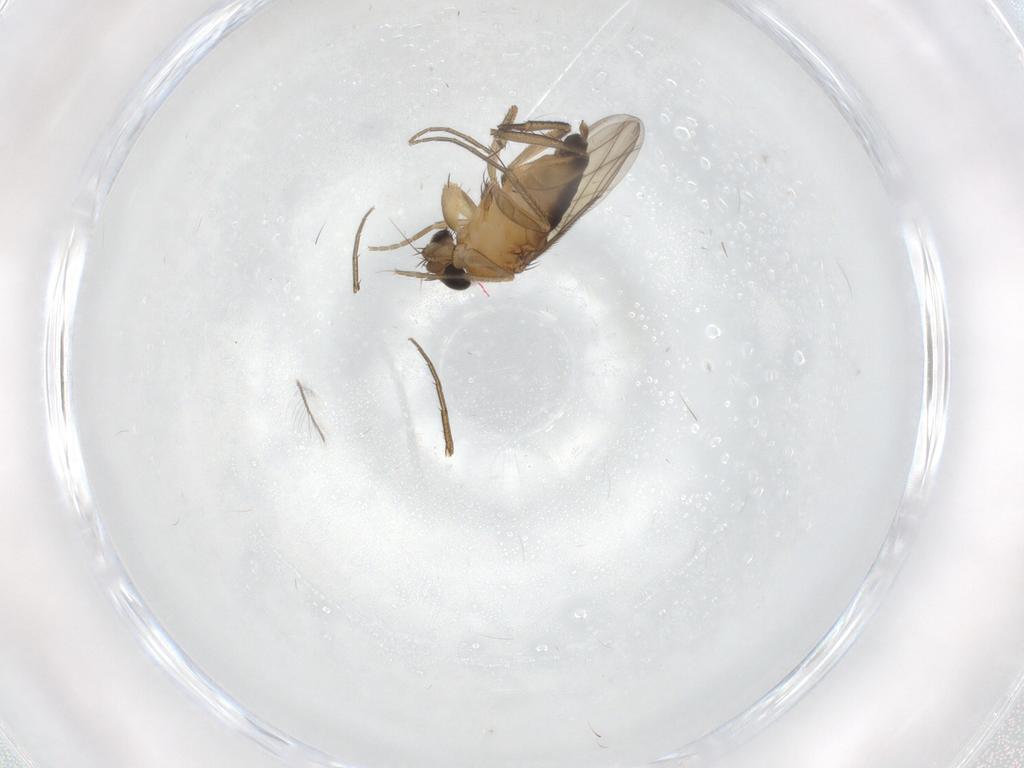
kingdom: Animalia
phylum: Arthropoda
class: Insecta
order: Diptera
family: Phoridae
